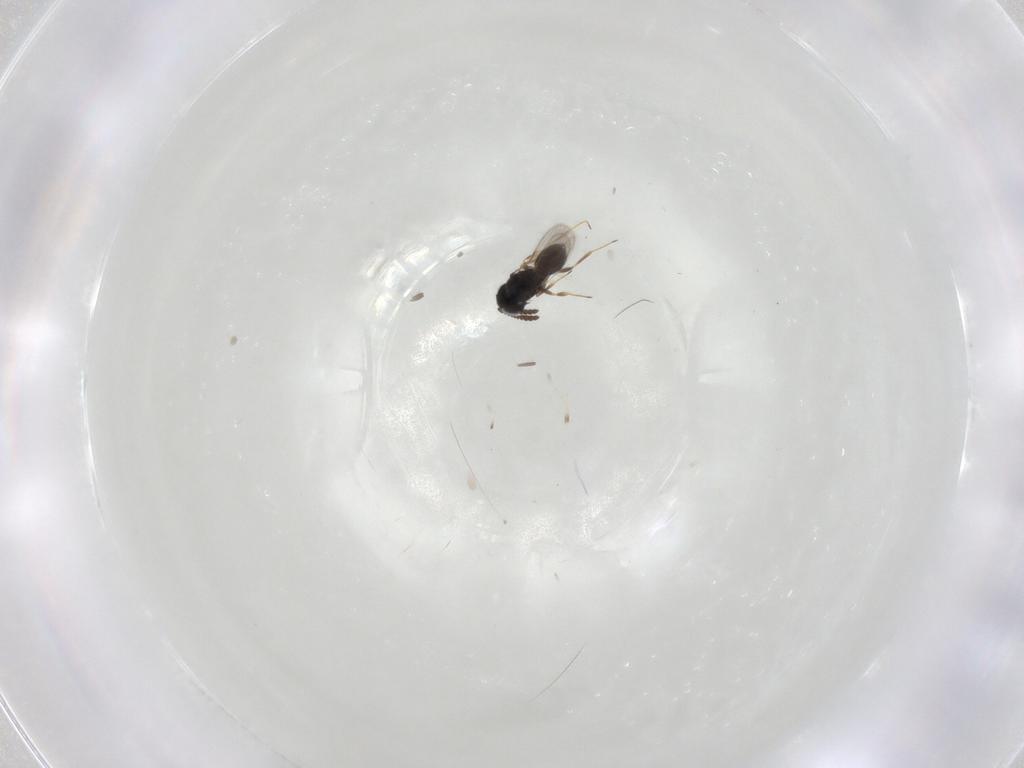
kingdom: Animalia
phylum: Arthropoda
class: Insecta
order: Hymenoptera
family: Scelionidae
